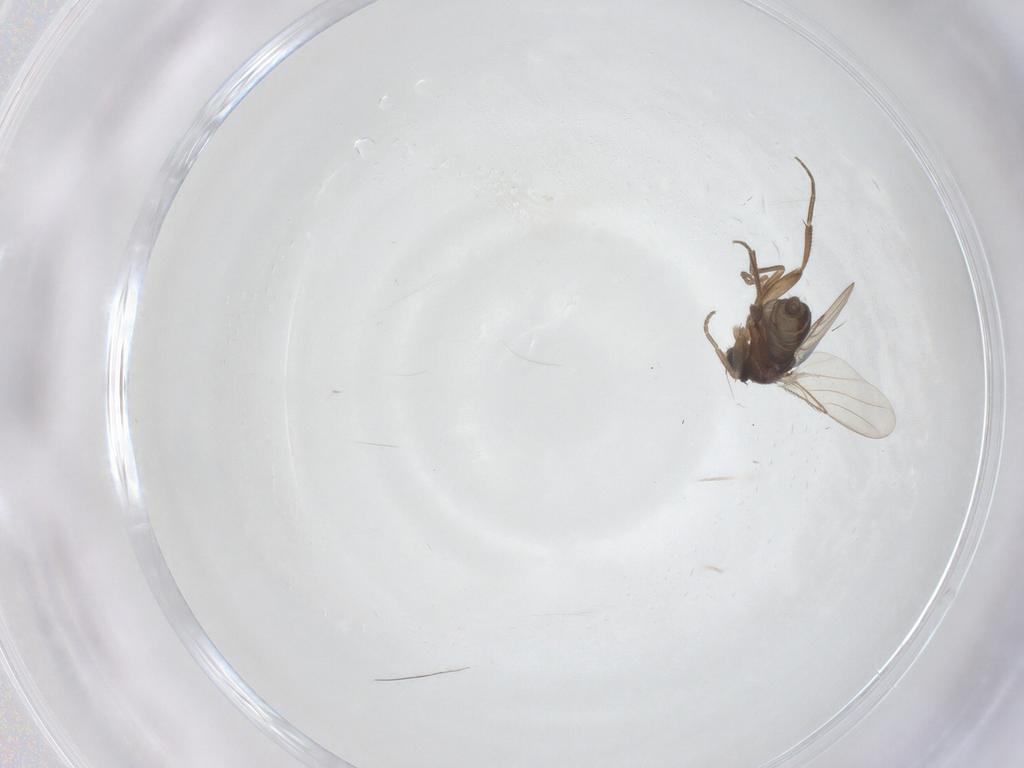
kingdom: Animalia
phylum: Arthropoda
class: Insecta
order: Diptera
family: Phoridae
